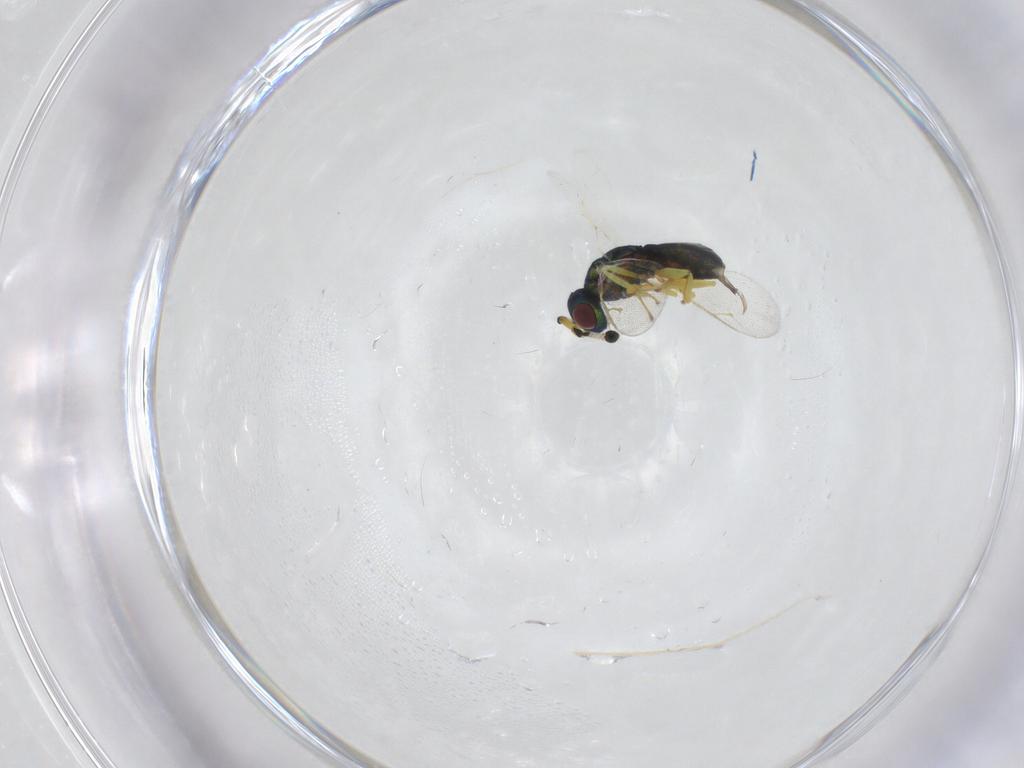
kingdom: Animalia
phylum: Arthropoda
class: Insecta
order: Hymenoptera
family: Pteromalidae
